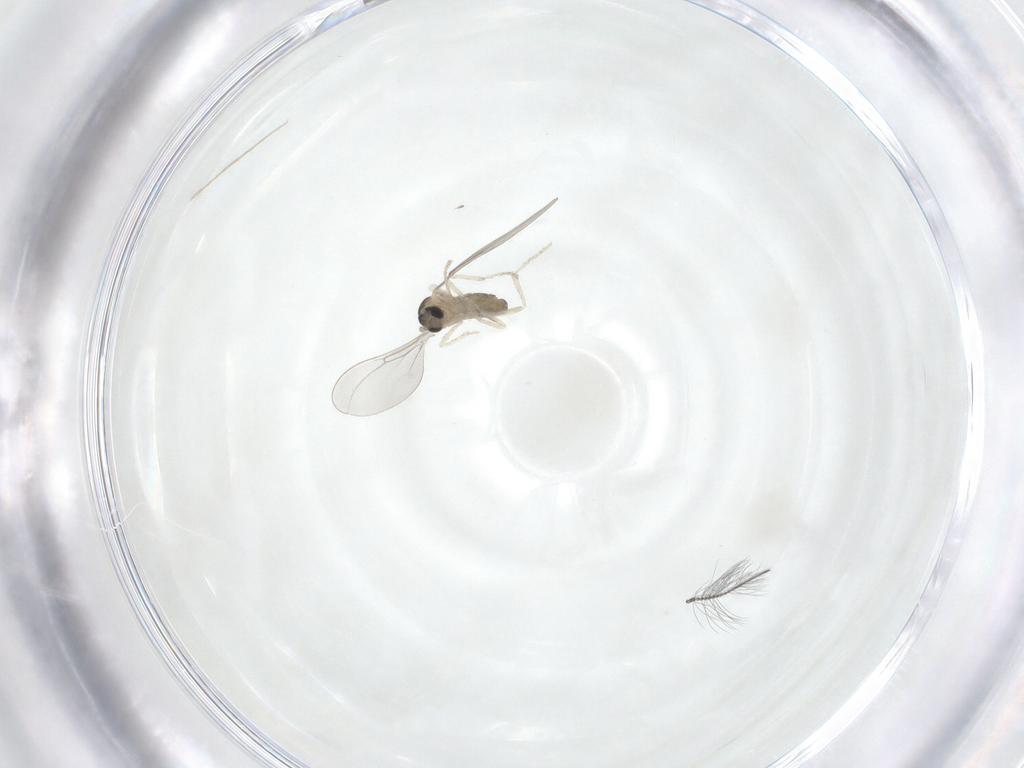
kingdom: Animalia
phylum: Arthropoda
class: Insecta
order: Diptera
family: Cecidomyiidae
